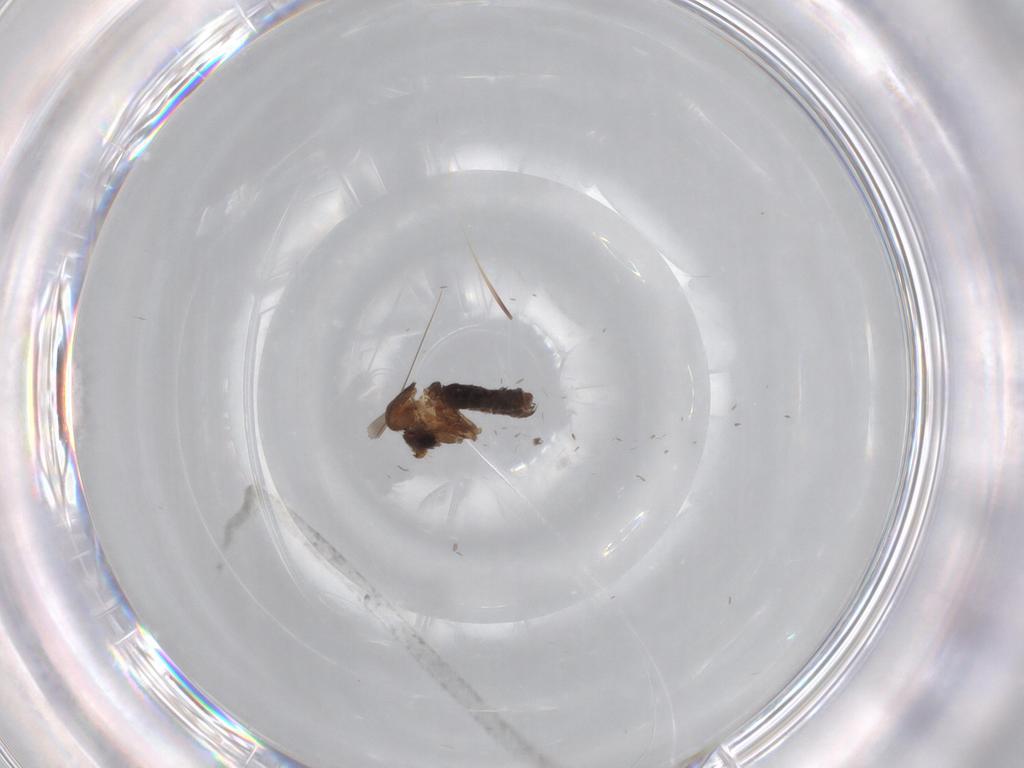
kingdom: Animalia
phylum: Arthropoda
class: Insecta
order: Diptera
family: Cecidomyiidae
